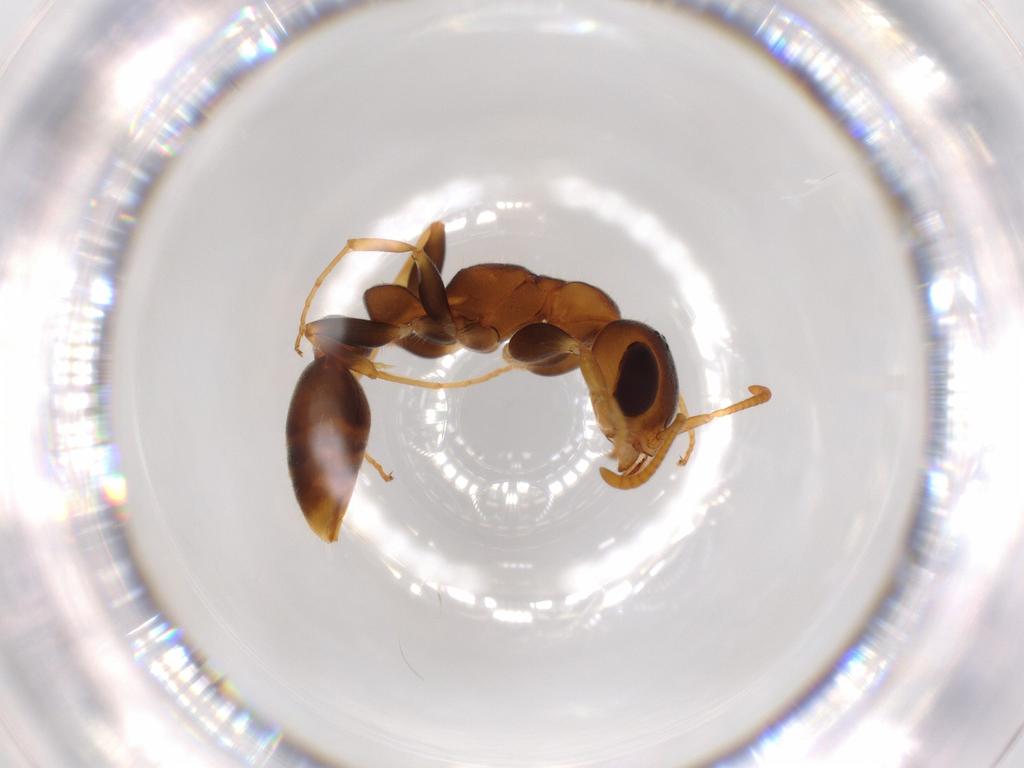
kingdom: Animalia
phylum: Arthropoda
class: Insecta
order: Hymenoptera
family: Formicidae
